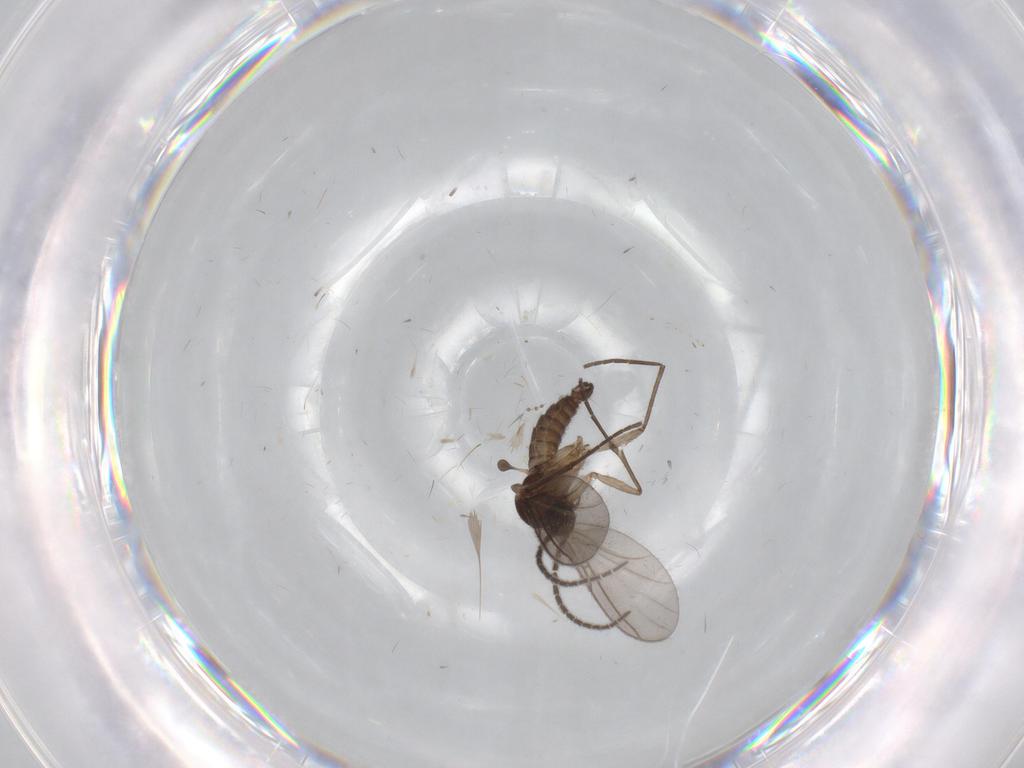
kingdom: Animalia
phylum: Arthropoda
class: Insecta
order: Diptera
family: Sciaridae
